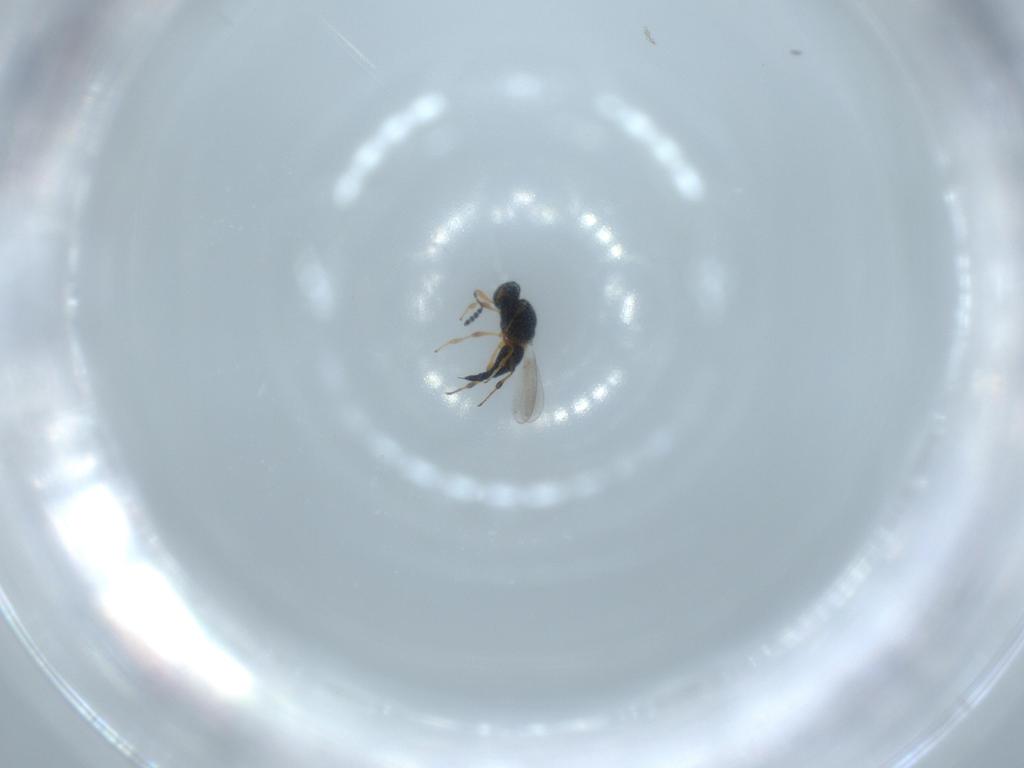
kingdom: Animalia
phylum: Arthropoda
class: Insecta
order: Hymenoptera
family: Platygastridae
